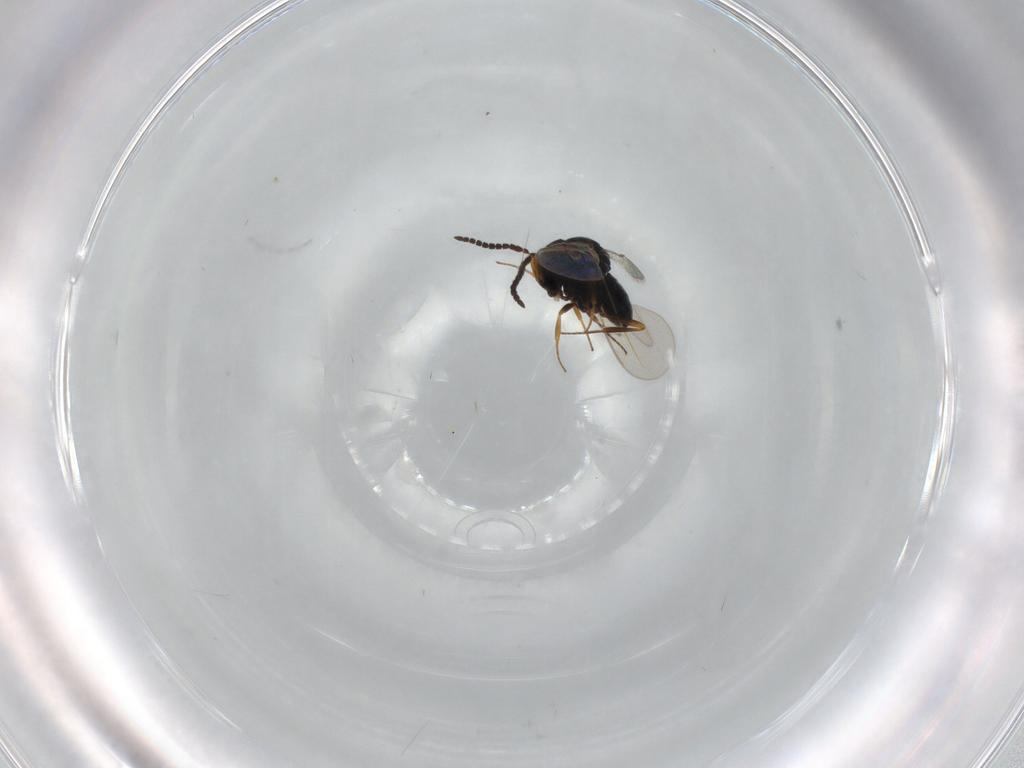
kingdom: Animalia
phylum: Arthropoda
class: Insecta
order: Hymenoptera
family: Scelionidae
